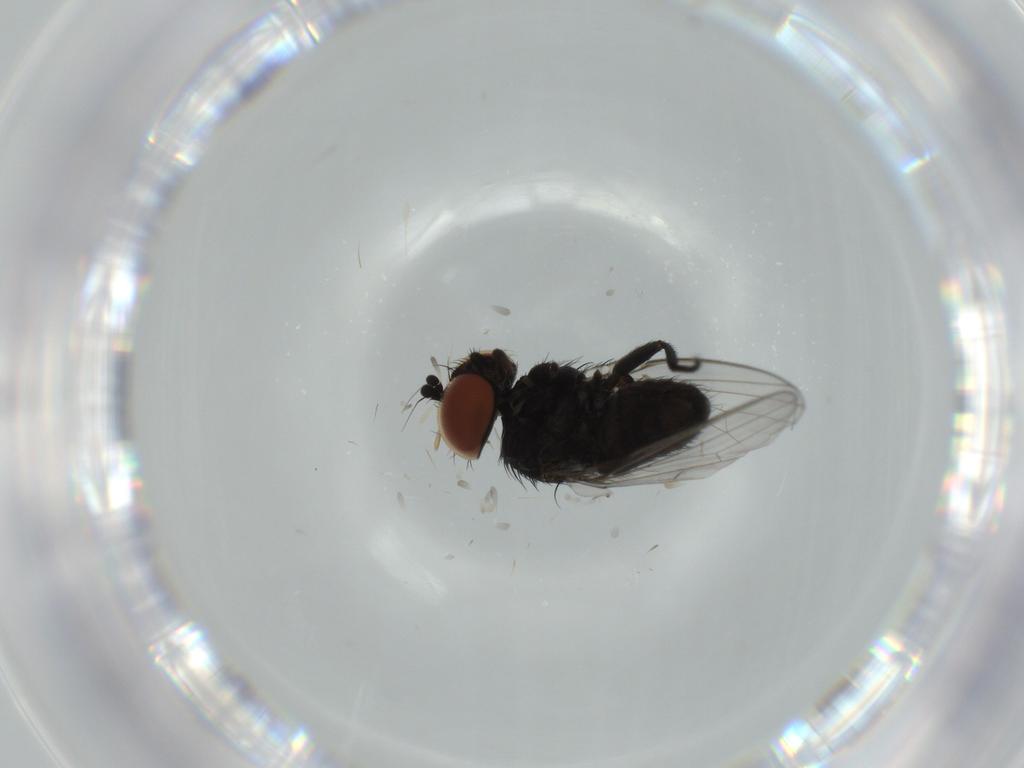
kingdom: Animalia
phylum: Arthropoda
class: Insecta
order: Diptera
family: Milichiidae
